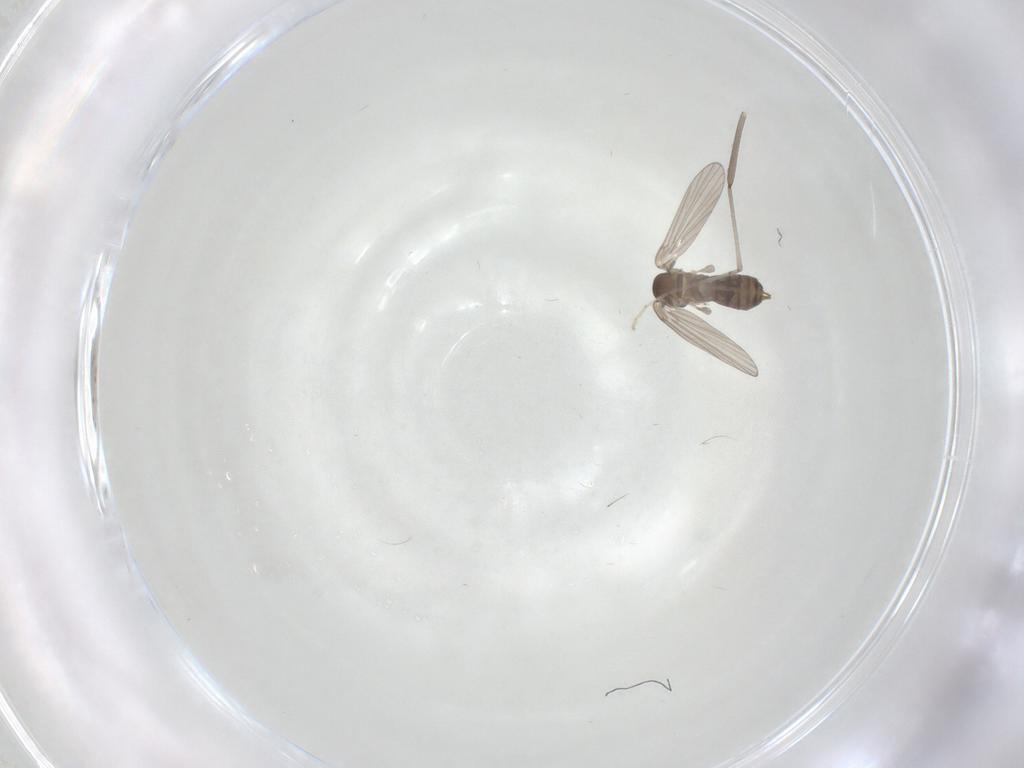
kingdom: Animalia
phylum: Arthropoda
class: Insecta
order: Diptera
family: Cecidomyiidae
